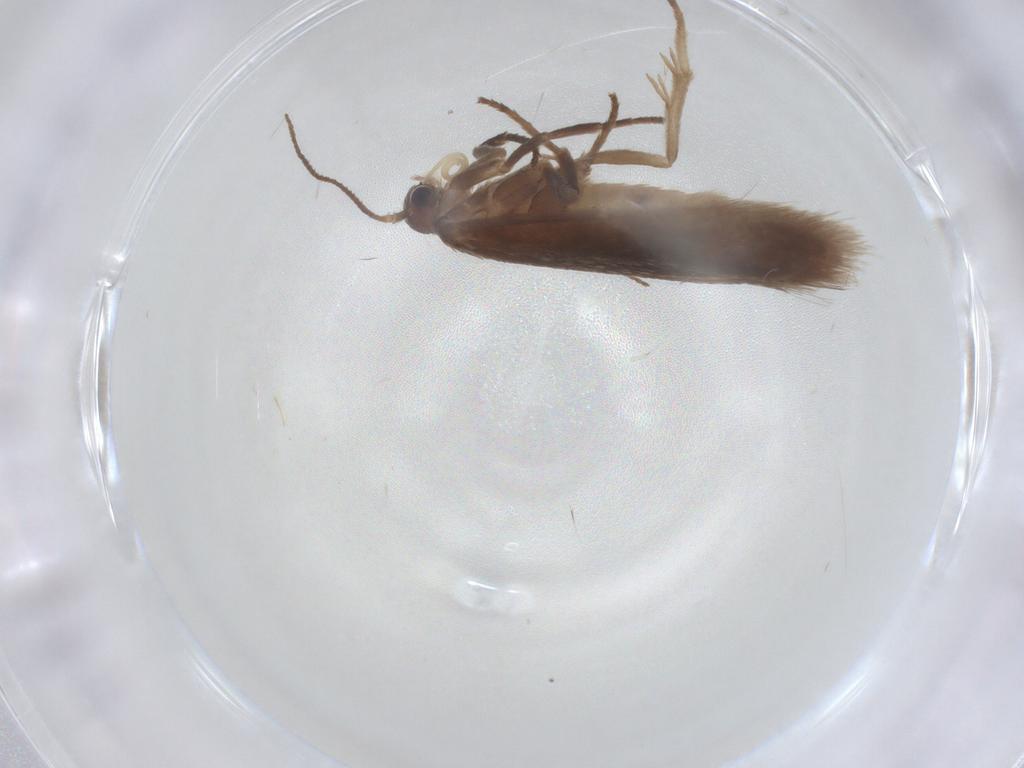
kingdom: Animalia
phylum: Arthropoda
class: Insecta
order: Lepidoptera
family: Limacodidae
